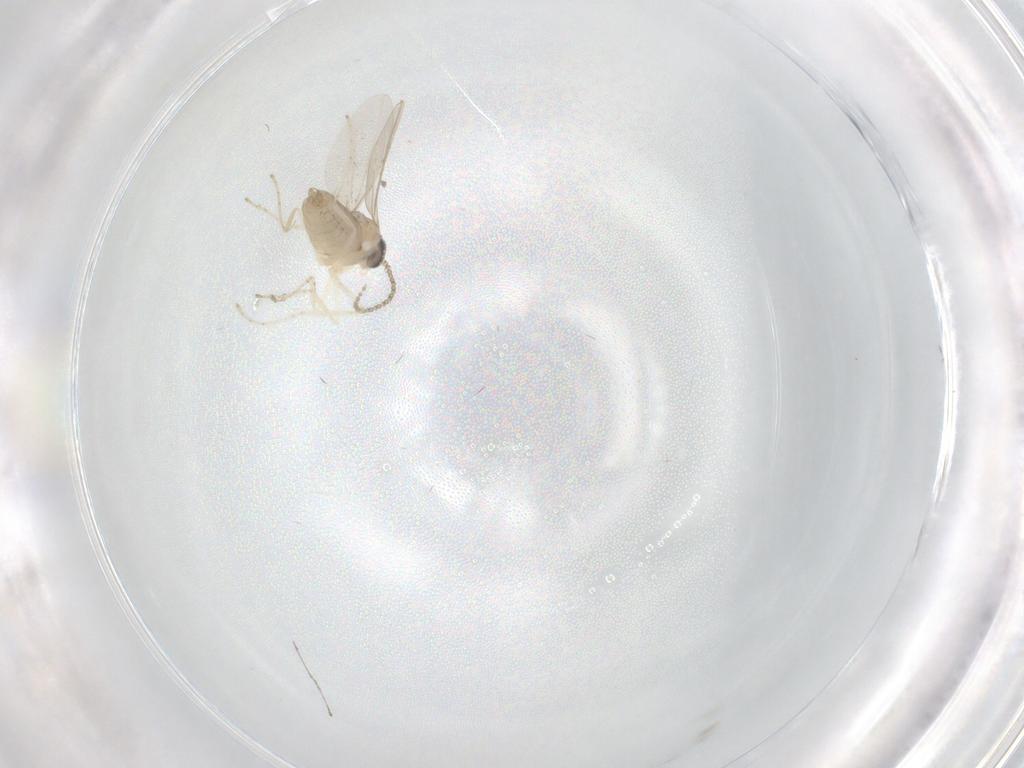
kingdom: Animalia
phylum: Arthropoda
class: Insecta
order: Diptera
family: Cecidomyiidae
